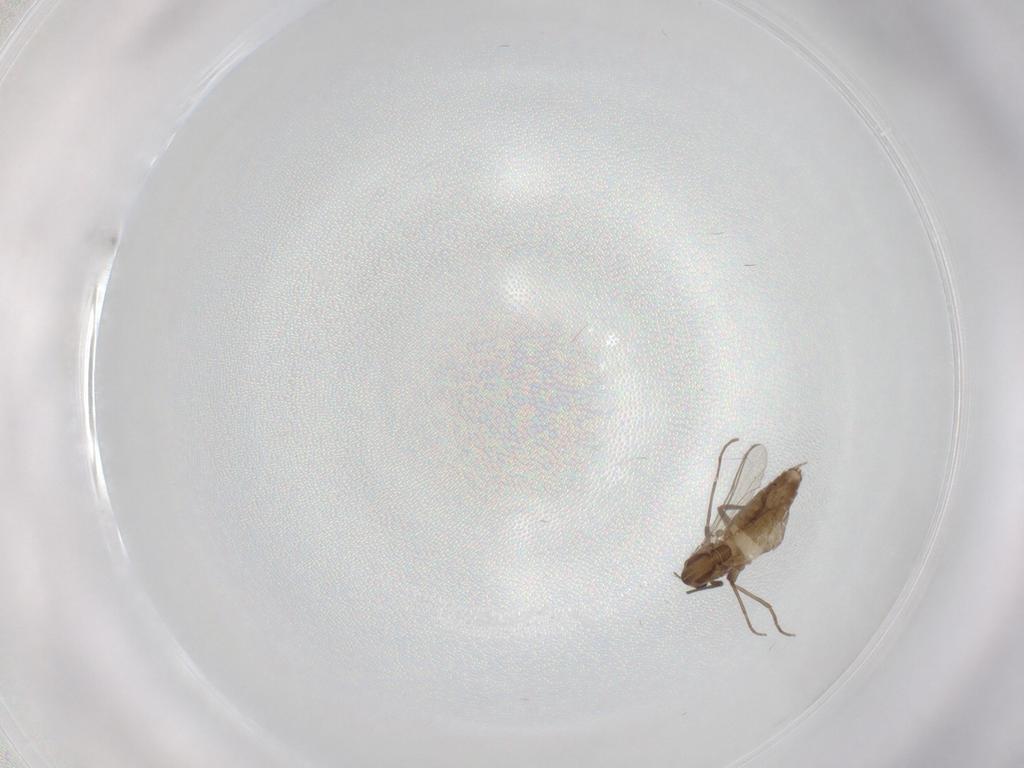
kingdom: Animalia
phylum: Arthropoda
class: Insecta
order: Diptera
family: Chironomidae
